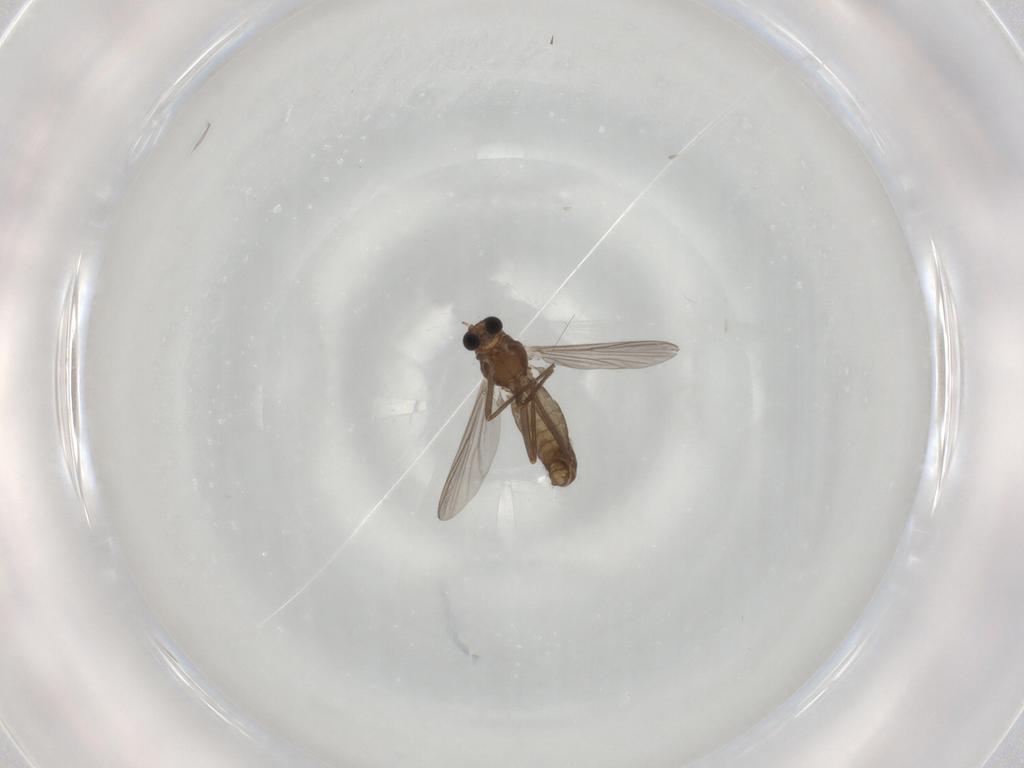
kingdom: Animalia
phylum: Arthropoda
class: Insecta
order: Diptera
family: Chironomidae
